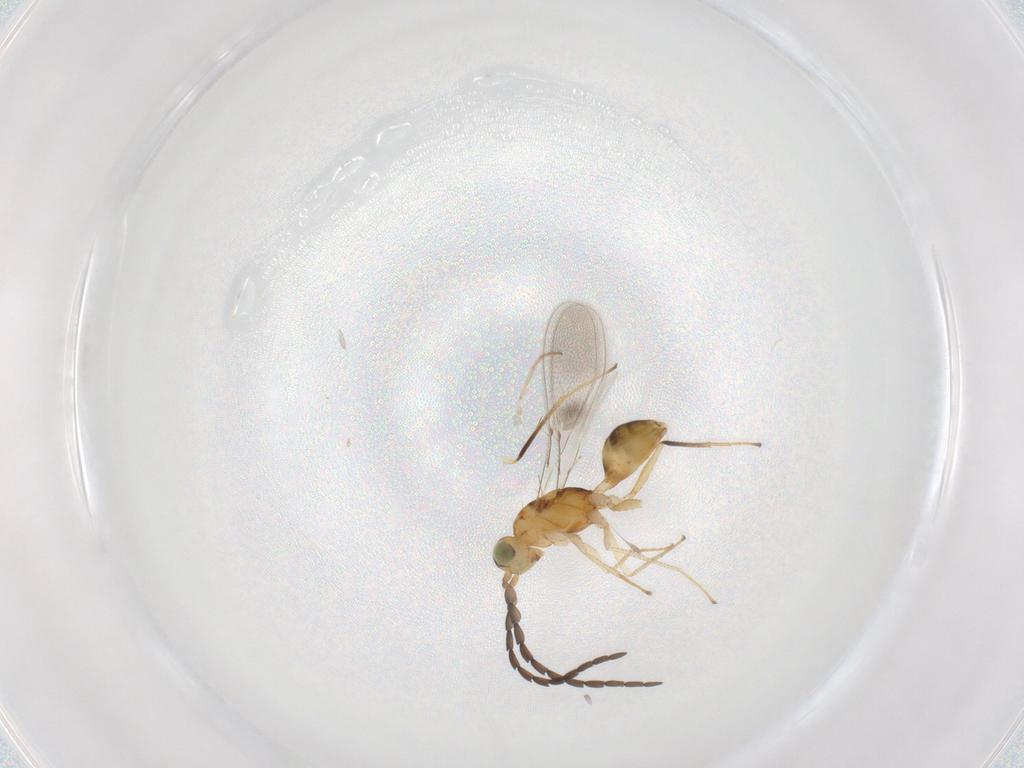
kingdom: Animalia
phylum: Arthropoda
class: Insecta
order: Hymenoptera
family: Mymaridae
